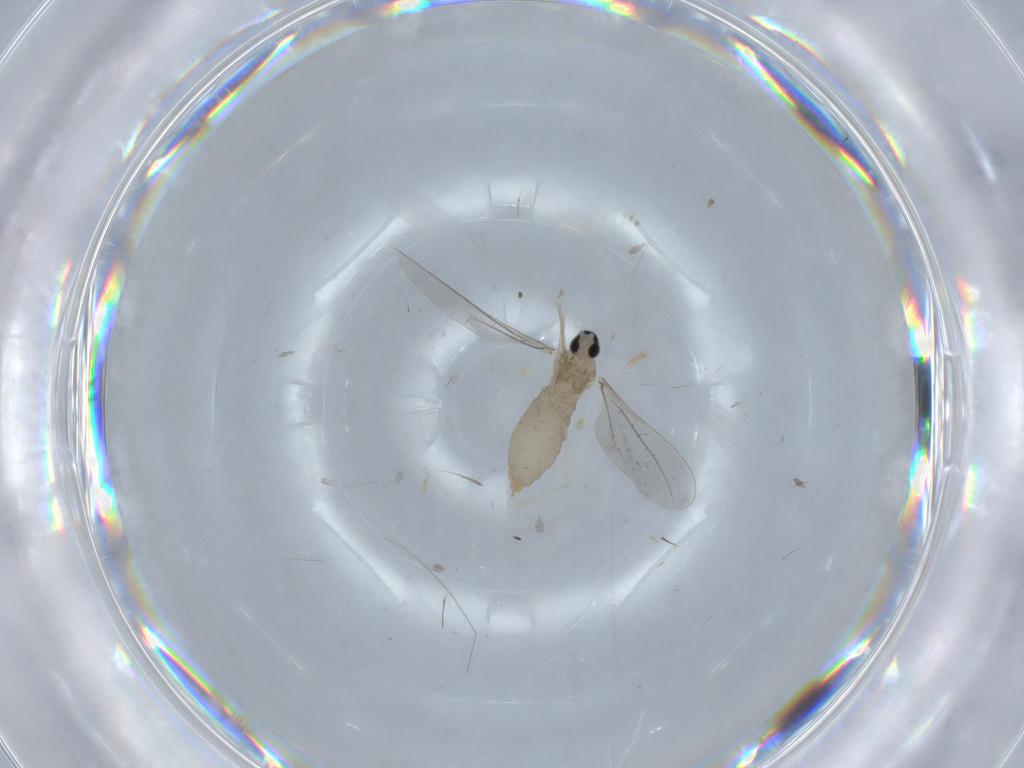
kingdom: Animalia
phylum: Arthropoda
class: Insecta
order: Diptera
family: Cecidomyiidae
